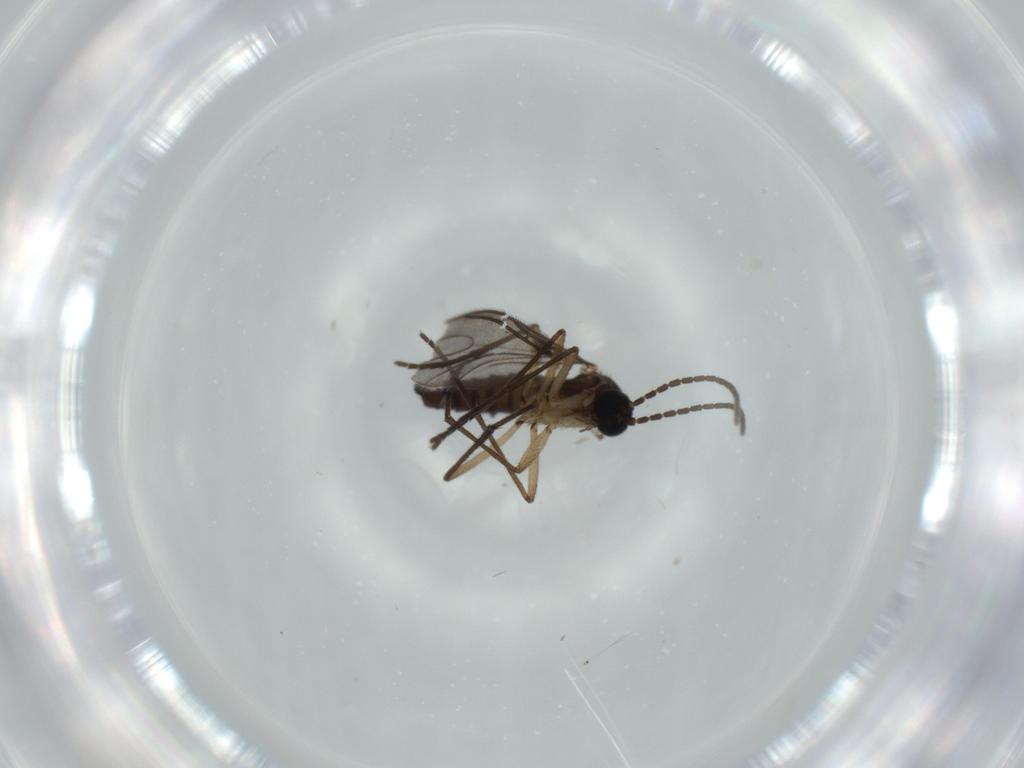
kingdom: Animalia
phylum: Arthropoda
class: Insecta
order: Diptera
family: Sciaridae
